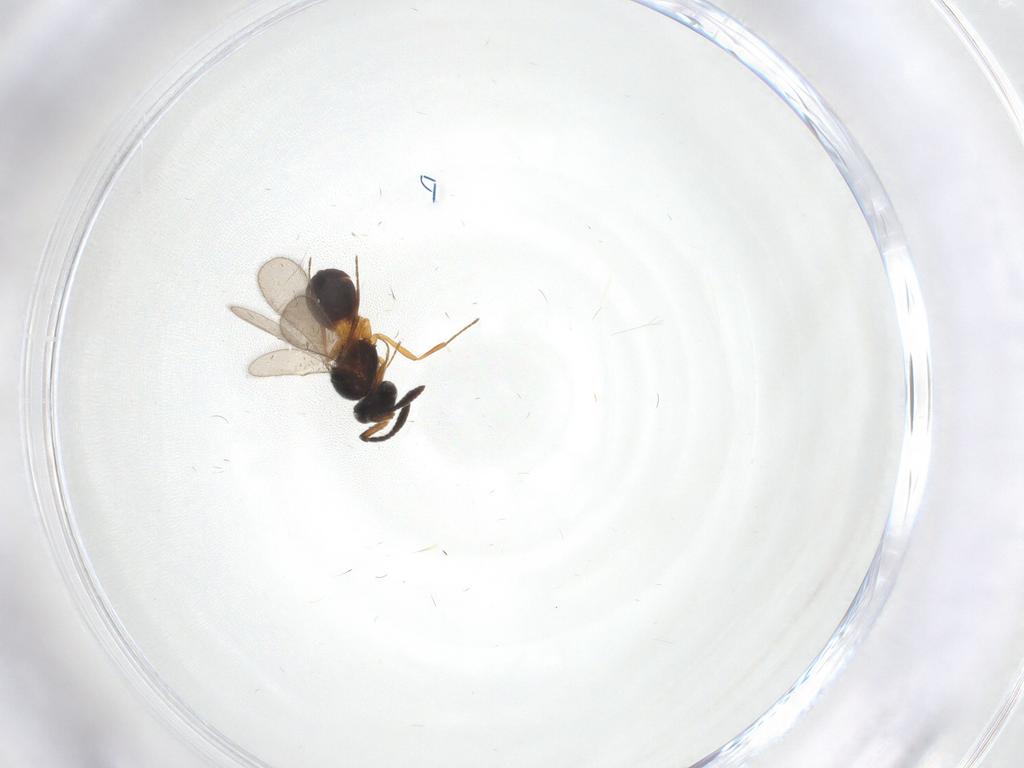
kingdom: Animalia
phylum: Arthropoda
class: Insecta
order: Hymenoptera
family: Scelionidae
